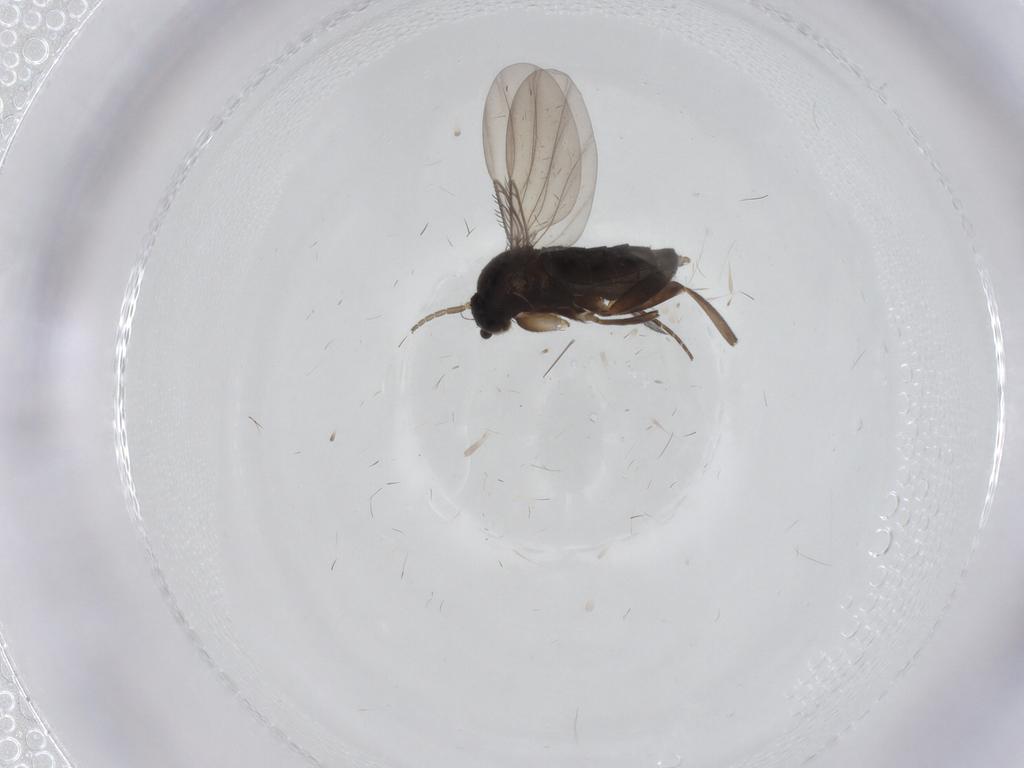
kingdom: Animalia
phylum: Arthropoda
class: Insecta
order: Diptera
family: Phoridae
